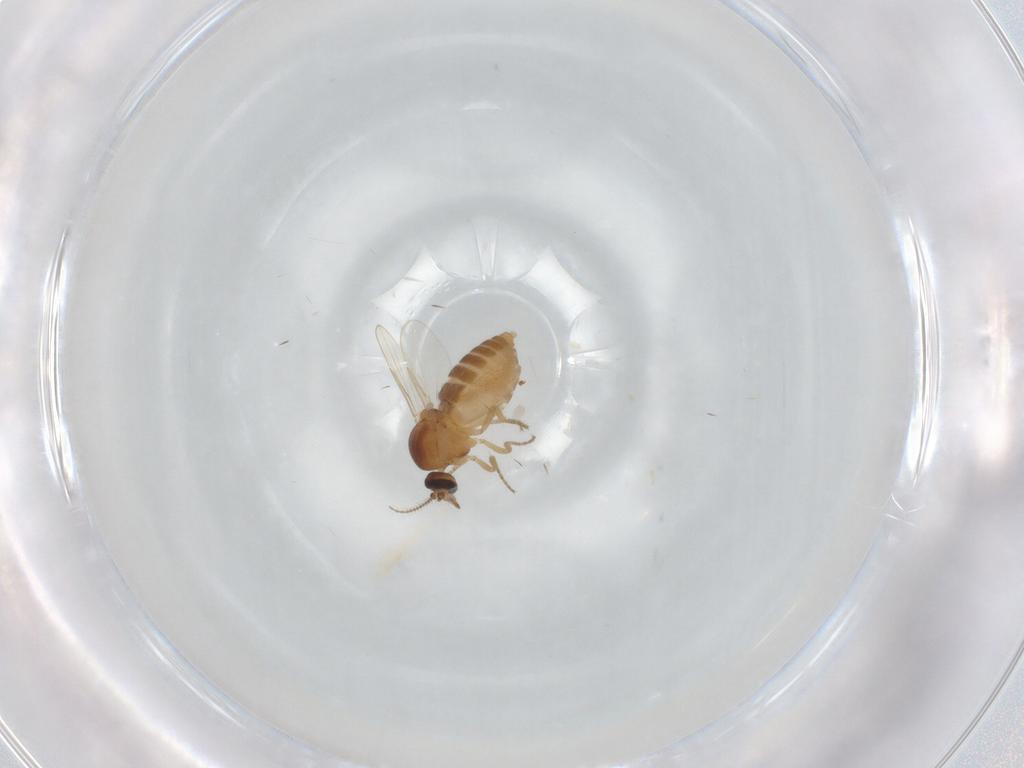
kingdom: Animalia
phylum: Arthropoda
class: Insecta
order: Diptera
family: Ceratopogonidae
